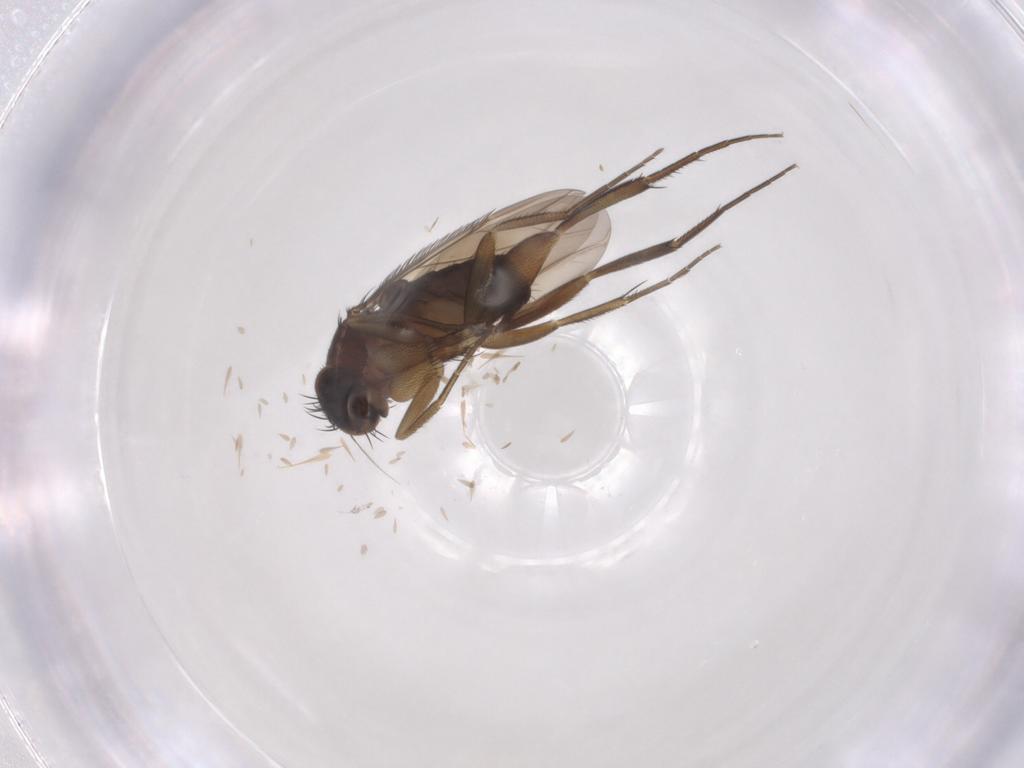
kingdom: Animalia
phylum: Arthropoda
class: Insecta
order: Diptera
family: Phoridae
